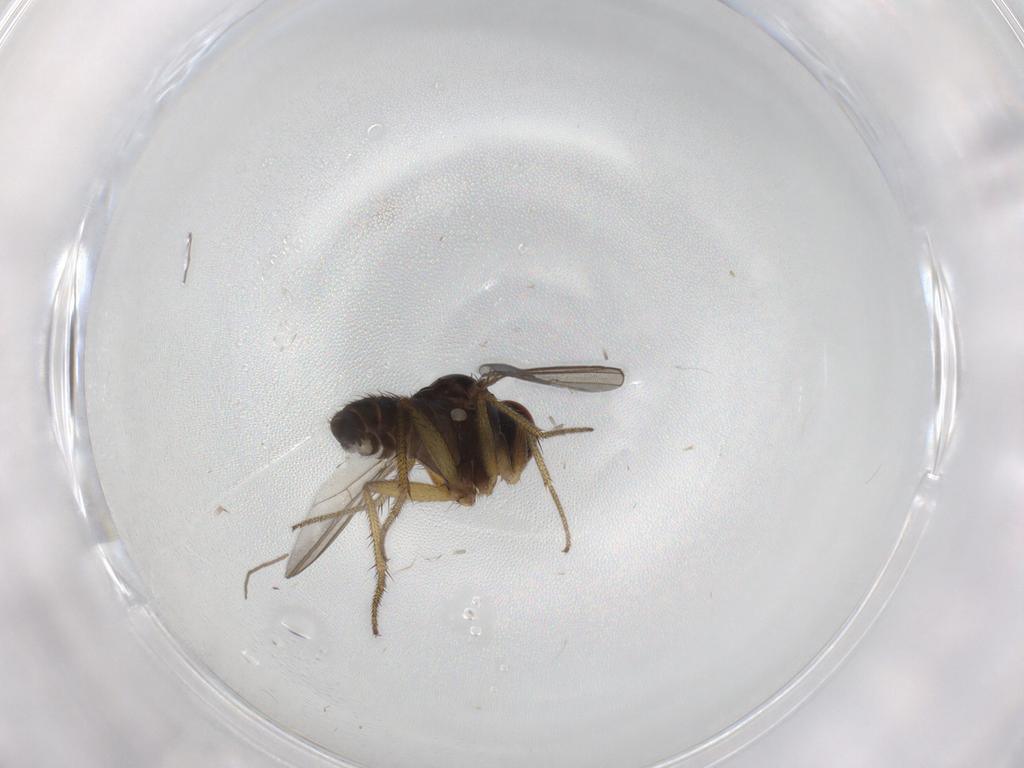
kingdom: Animalia
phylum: Arthropoda
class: Insecta
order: Diptera
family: Dolichopodidae
